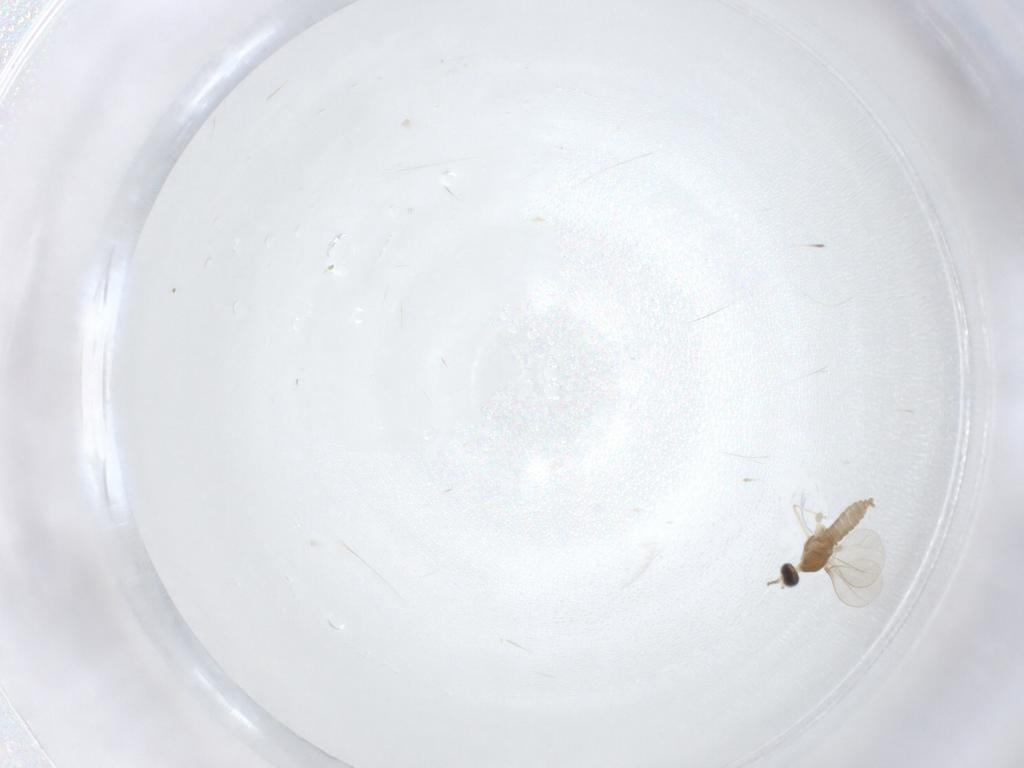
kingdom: Animalia
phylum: Arthropoda
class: Insecta
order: Diptera
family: Cecidomyiidae
